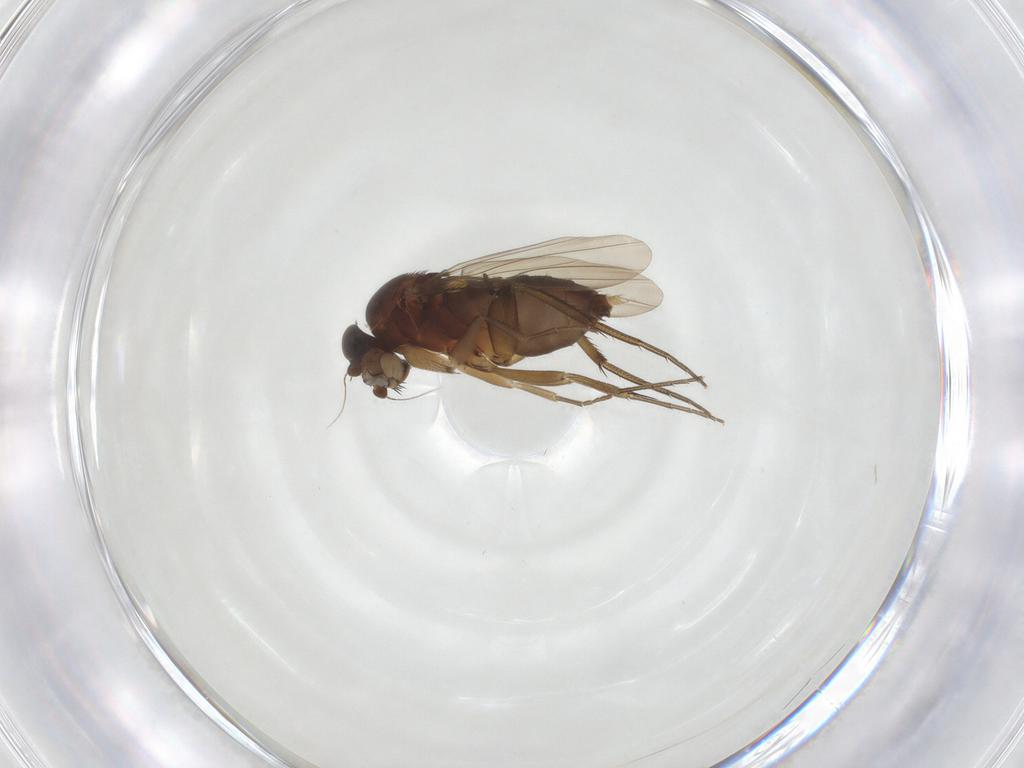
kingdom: Animalia
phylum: Arthropoda
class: Insecta
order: Diptera
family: Phoridae
